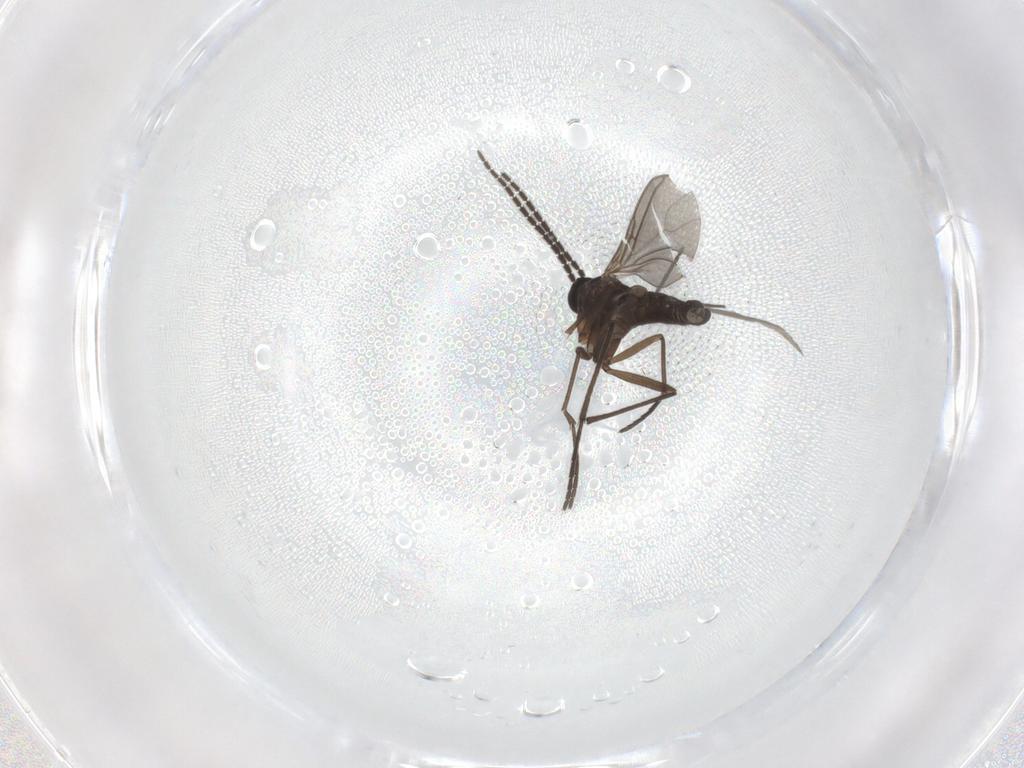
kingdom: Animalia
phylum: Arthropoda
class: Insecta
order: Diptera
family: Sciaridae
